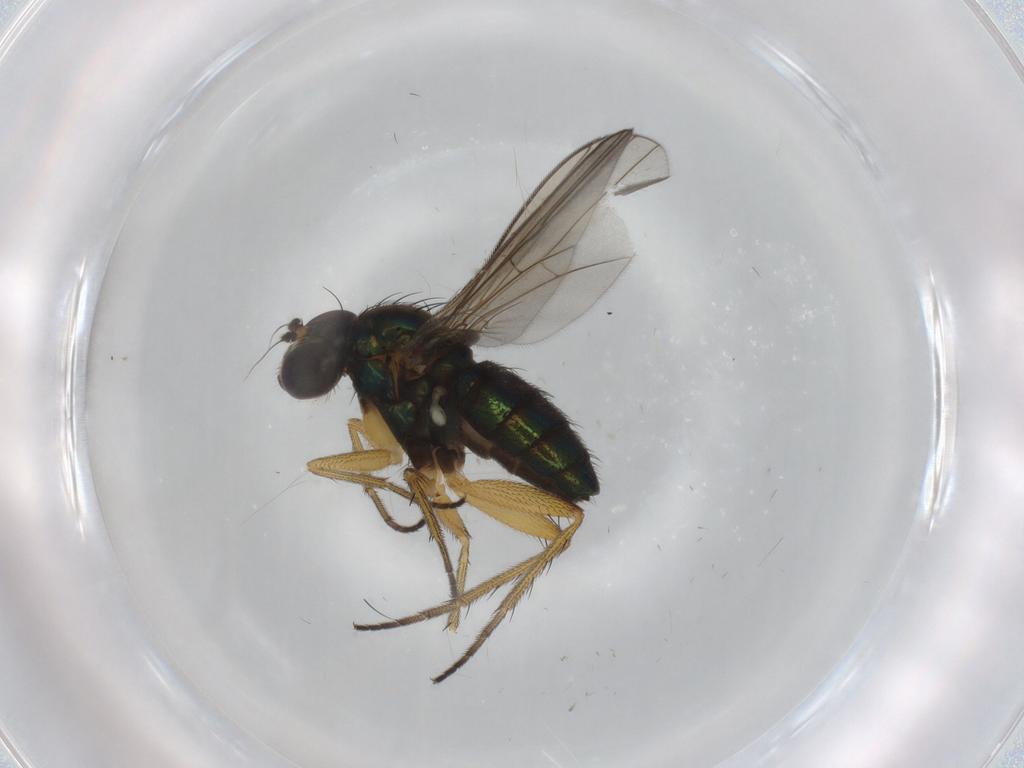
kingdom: Animalia
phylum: Arthropoda
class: Insecta
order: Diptera
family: Dolichopodidae
